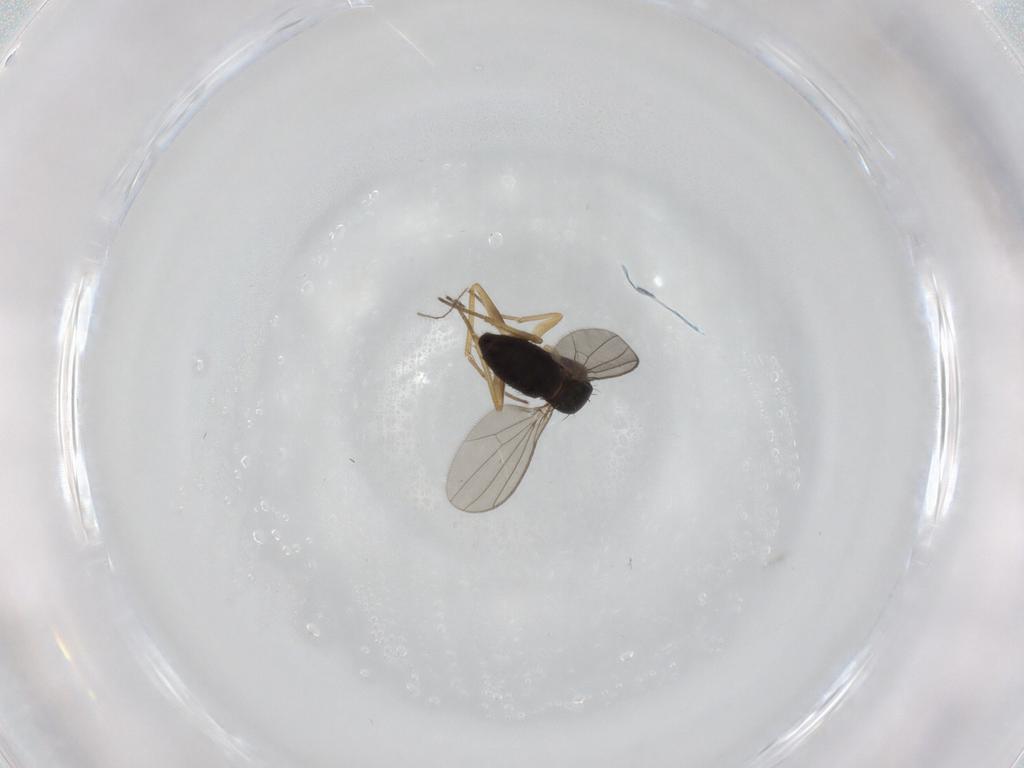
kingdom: Animalia
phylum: Arthropoda
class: Insecta
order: Diptera
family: Dolichopodidae
